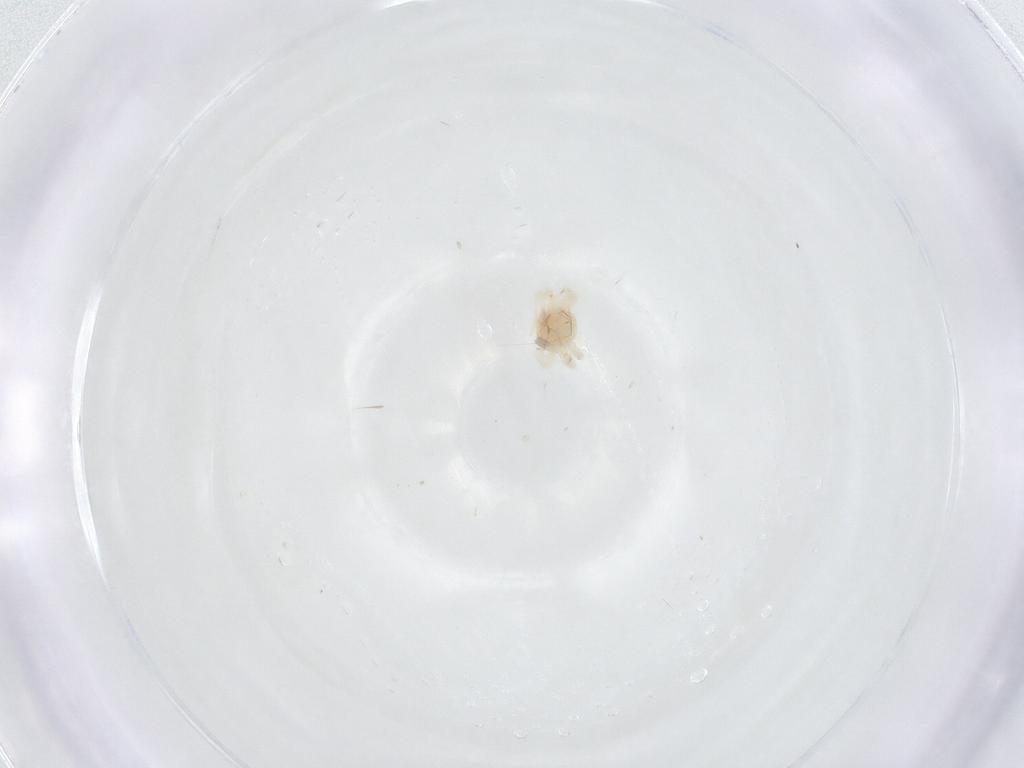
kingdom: Animalia
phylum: Arthropoda
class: Arachnida
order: Trombidiformes
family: Anystidae
